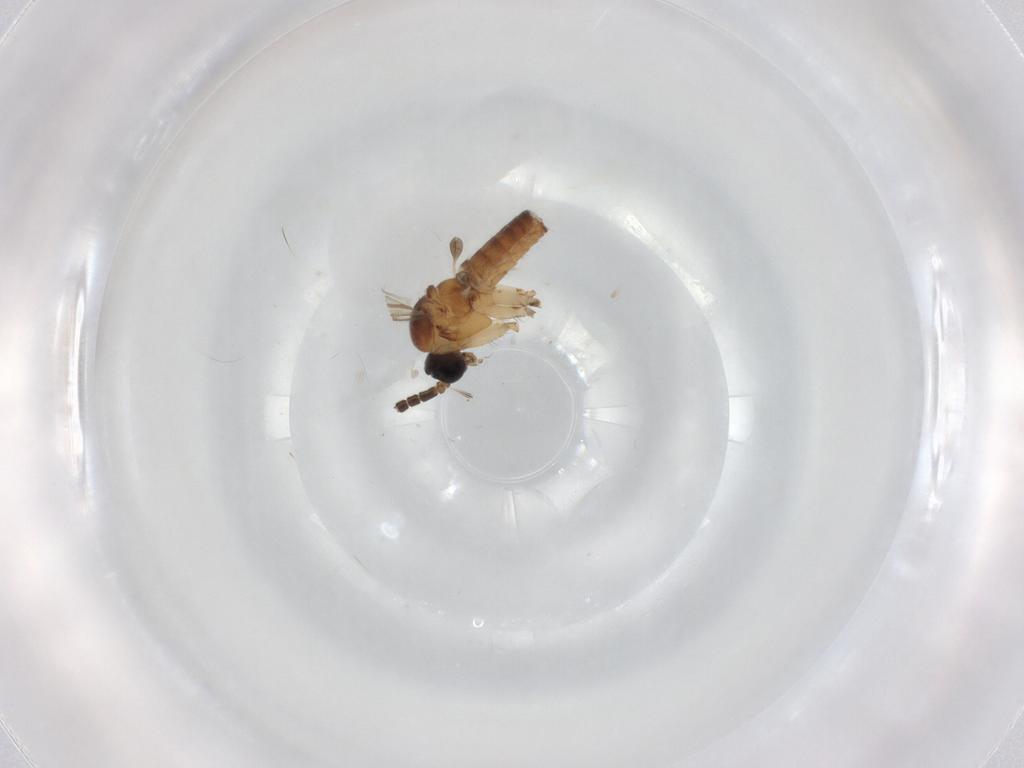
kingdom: Animalia
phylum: Arthropoda
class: Insecta
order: Diptera
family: Sciaridae
